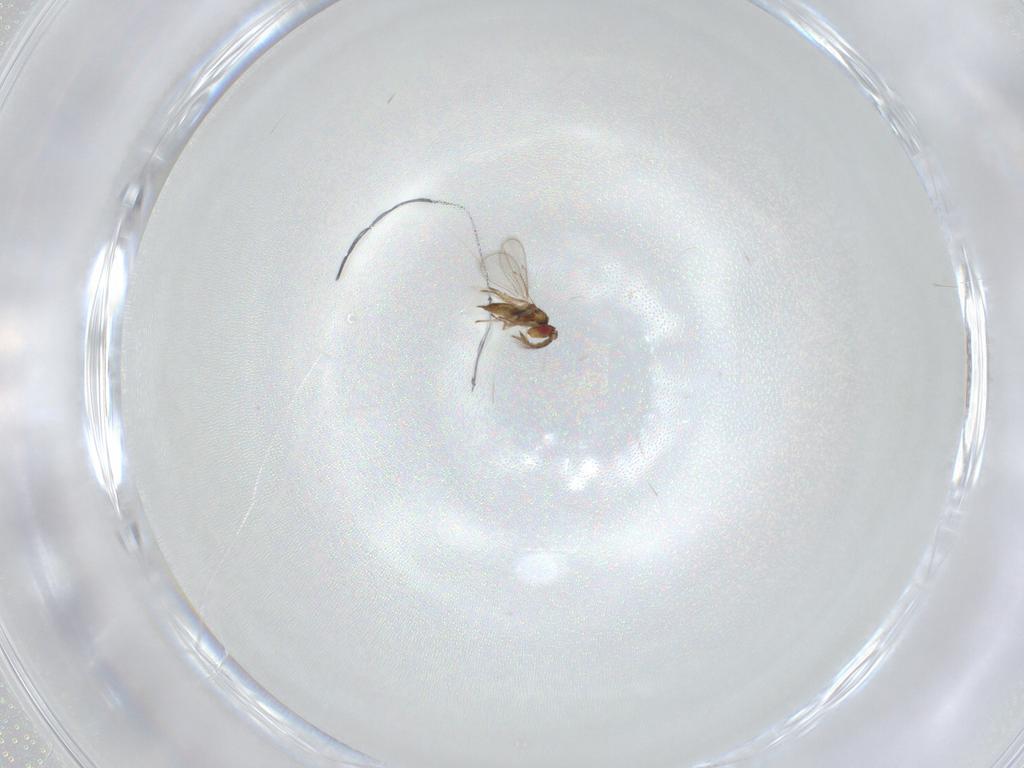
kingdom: Animalia
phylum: Arthropoda
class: Insecta
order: Hymenoptera
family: Eulophidae
